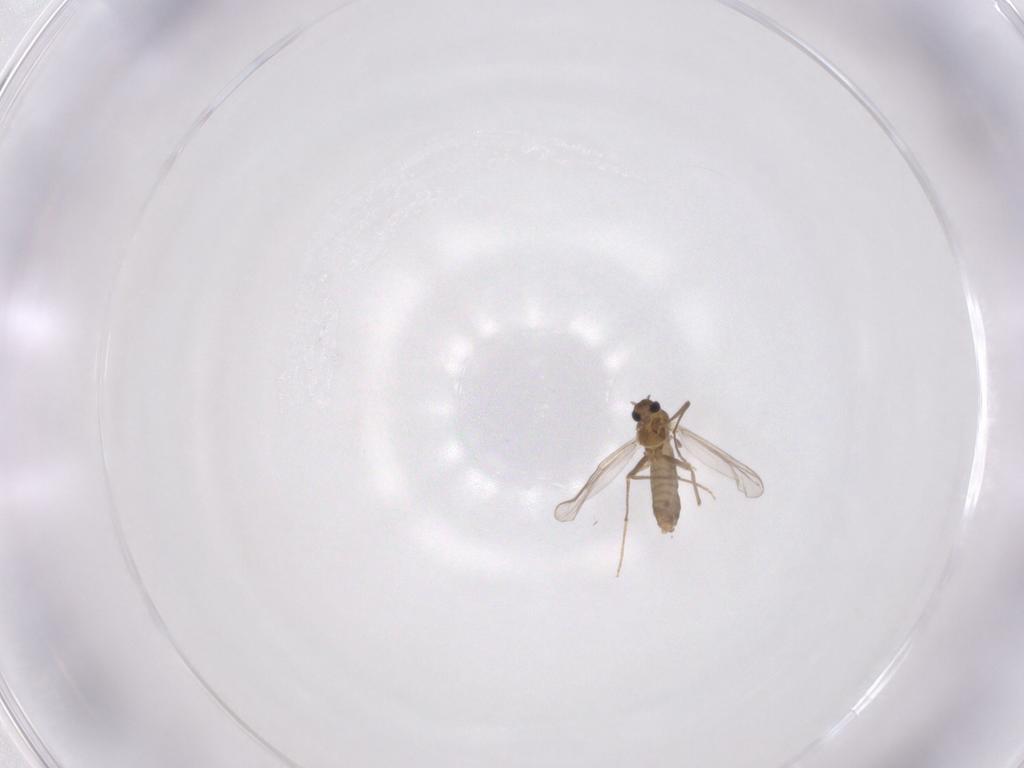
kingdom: Animalia
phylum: Arthropoda
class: Insecta
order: Diptera
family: Chironomidae
